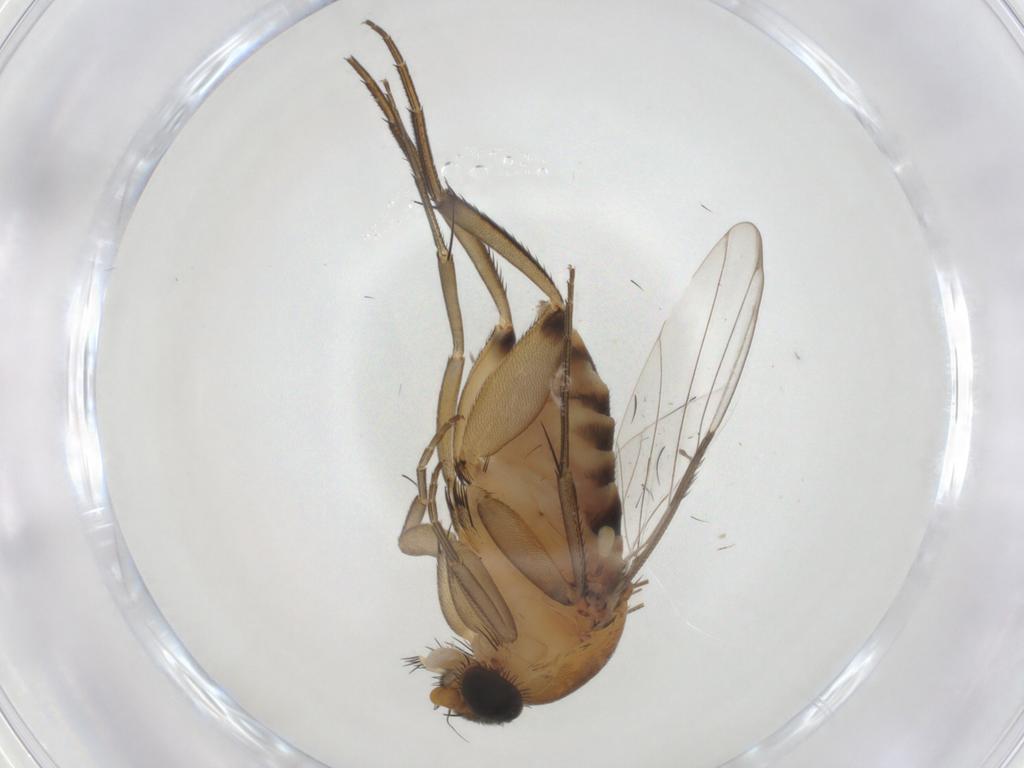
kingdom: Animalia
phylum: Arthropoda
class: Insecta
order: Diptera
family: Phoridae
